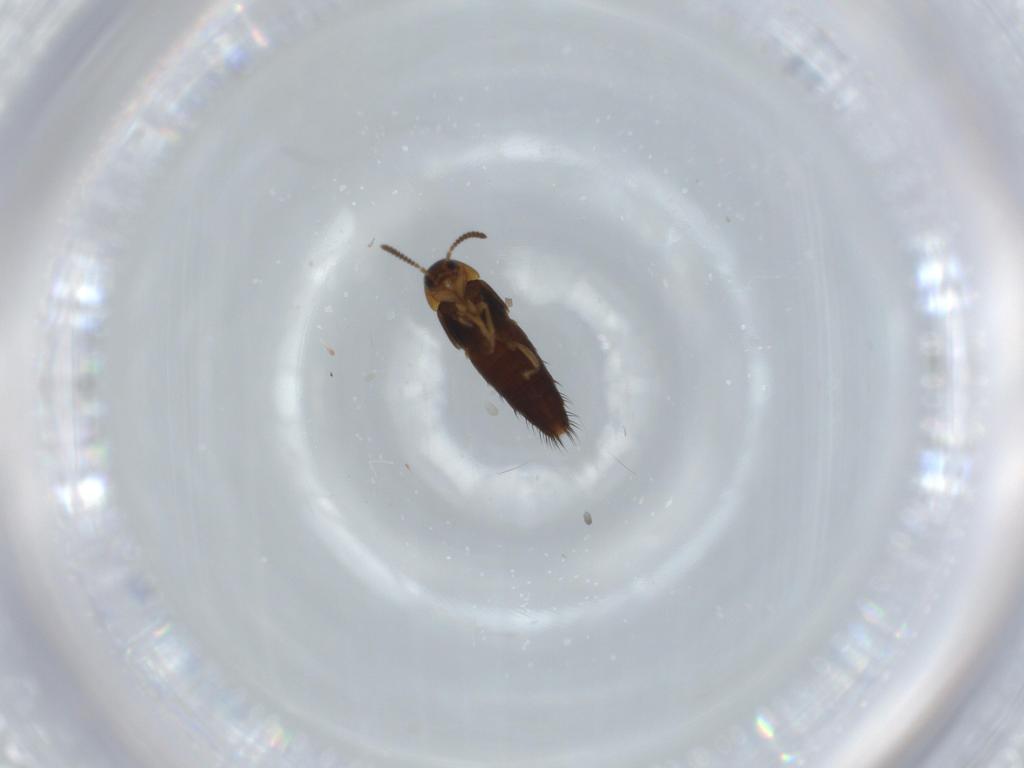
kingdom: Animalia
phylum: Arthropoda
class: Insecta
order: Coleoptera
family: Staphylinidae
